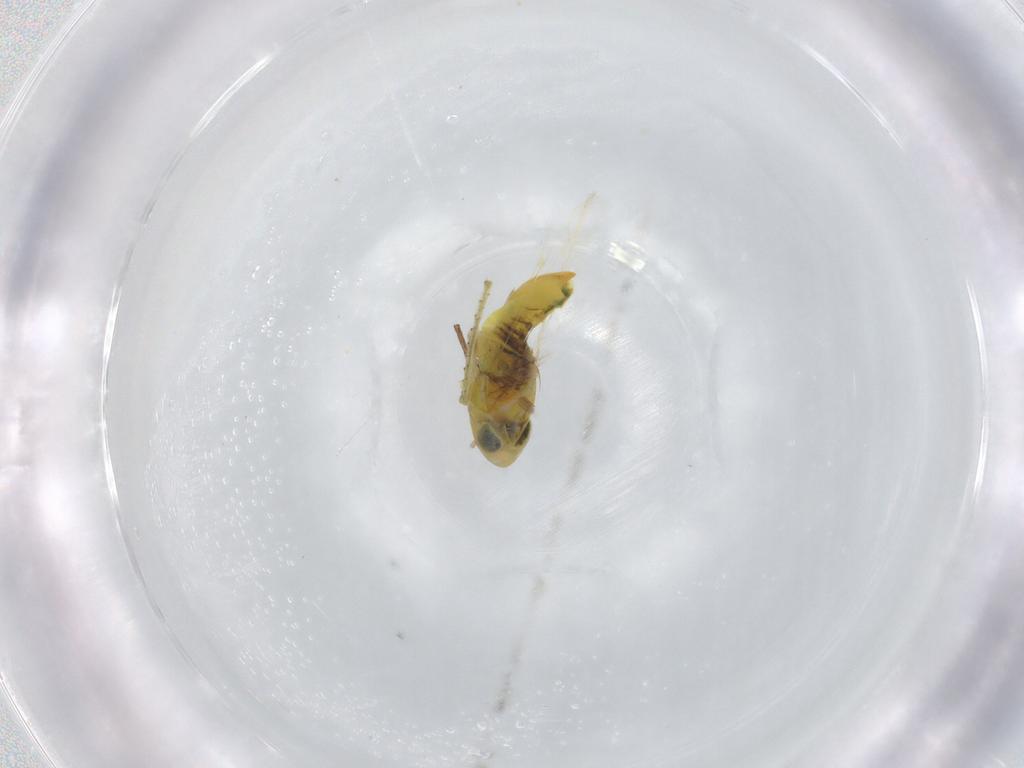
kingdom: Animalia
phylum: Arthropoda
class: Insecta
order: Hemiptera
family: Cicadellidae
